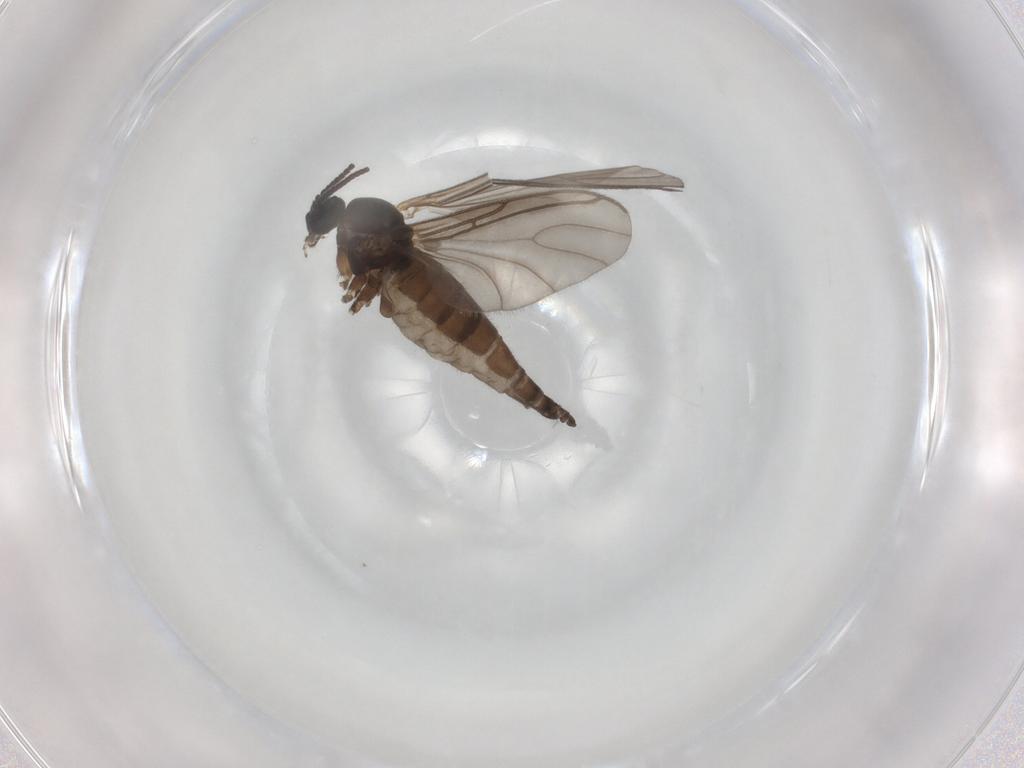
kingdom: Animalia
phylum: Arthropoda
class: Insecta
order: Diptera
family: Sciaridae
